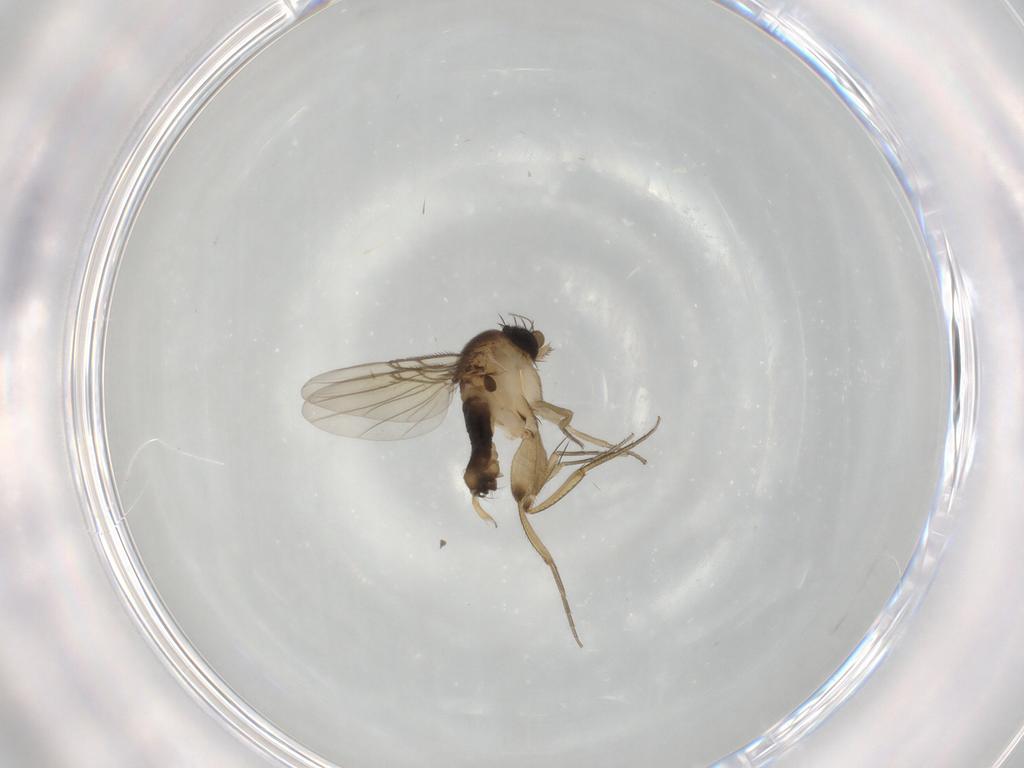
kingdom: Animalia
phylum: Arthropoda
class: Insecta
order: Diptera
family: Phoridae
